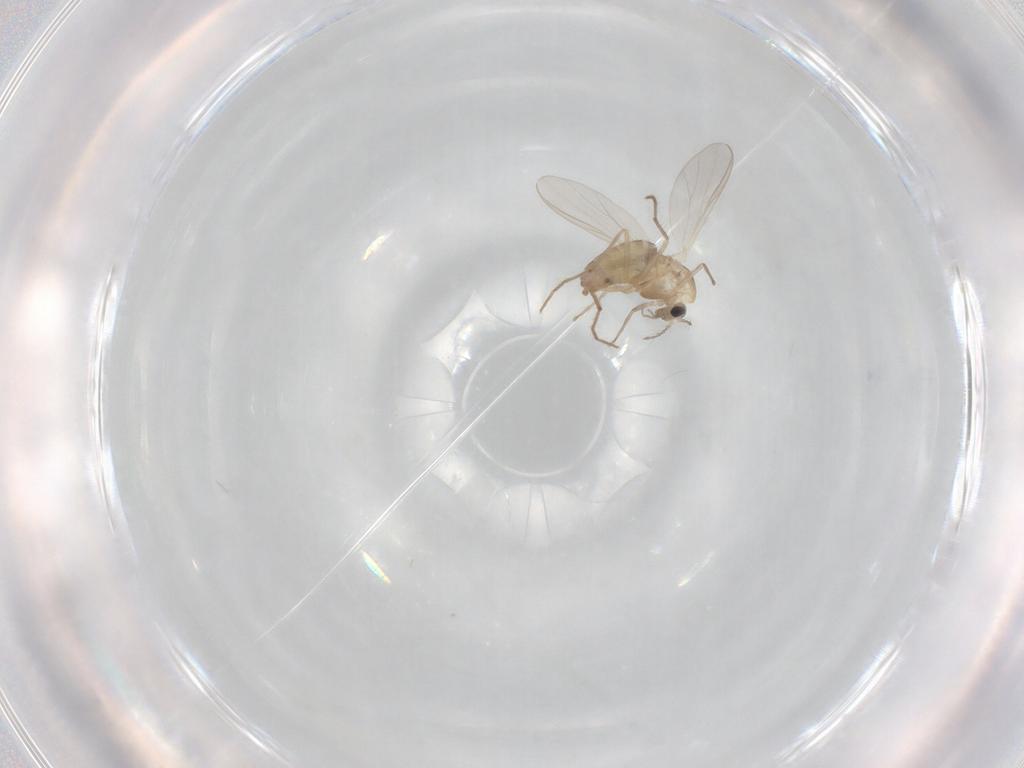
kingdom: Animalia
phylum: Arthropoda
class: Insecta
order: Diptera
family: Chironomidae
